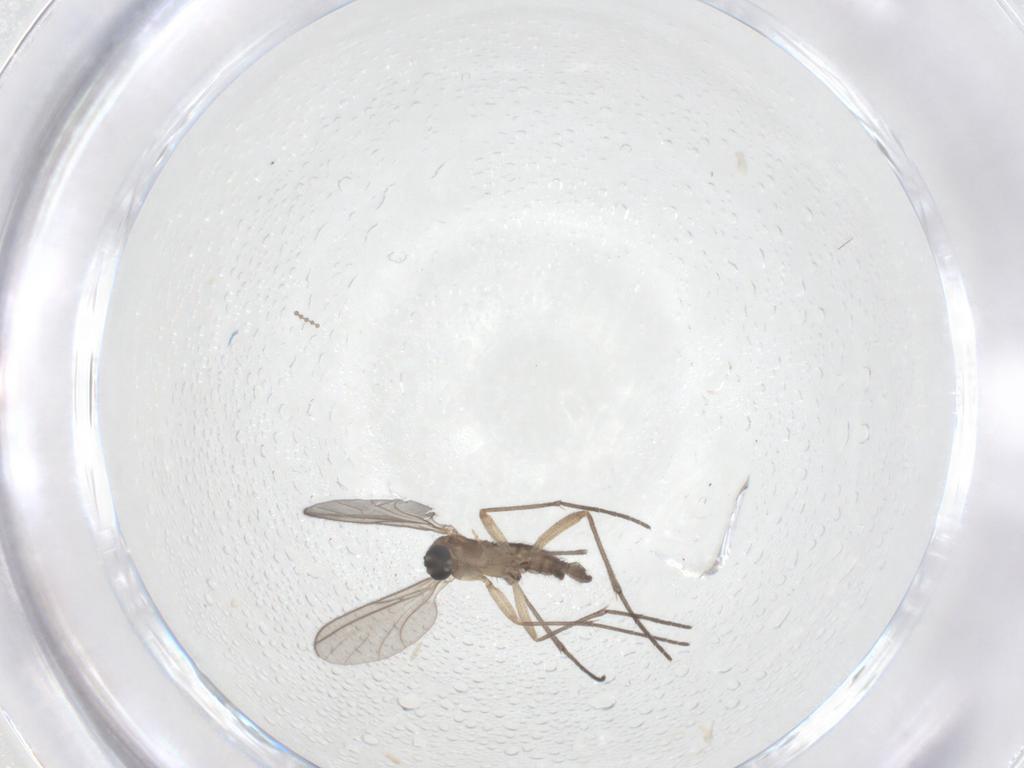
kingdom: Animalia
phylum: Arthropoda
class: Insecta
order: Diptera
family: Sciaridae
